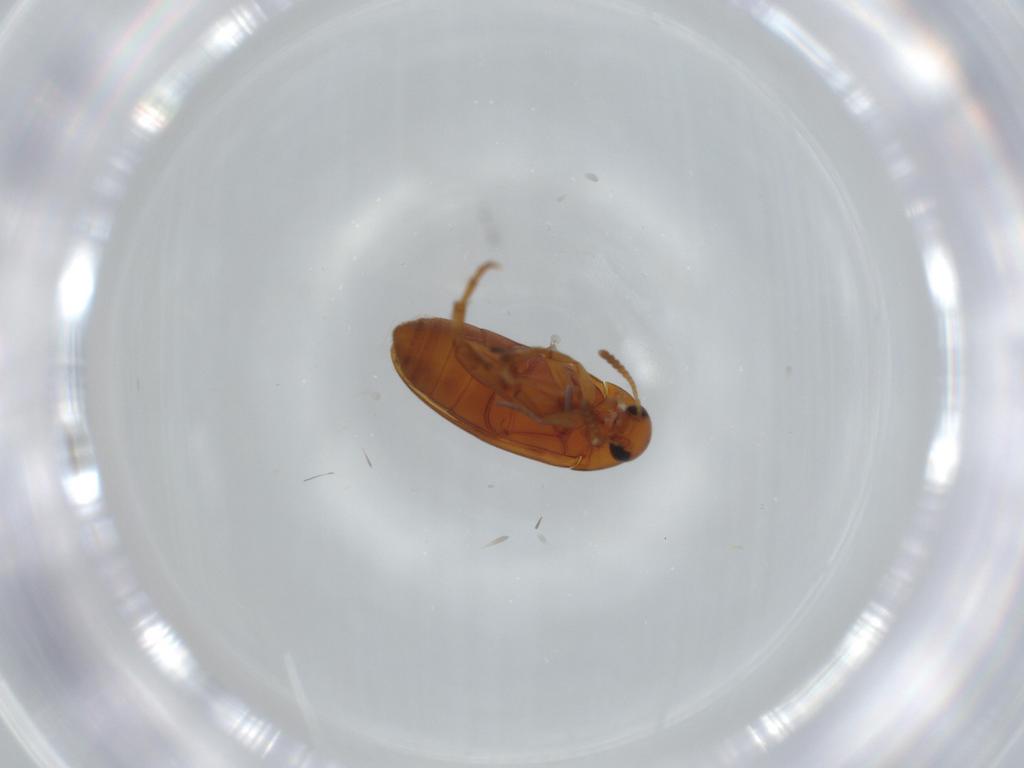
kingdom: Animalia
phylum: Arthropoda
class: Insecta
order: Coleoptera
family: Scraptiidae
